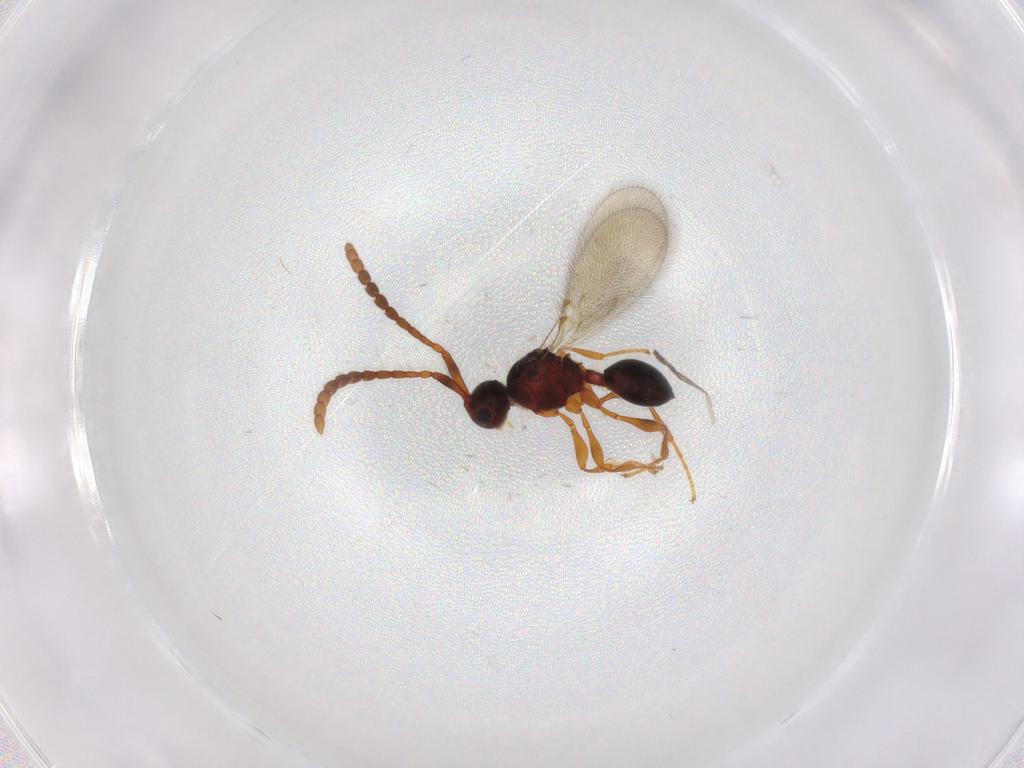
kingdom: Animalia
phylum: Arthropoda
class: Insecta
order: Hymenoptera
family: Diapriidae
